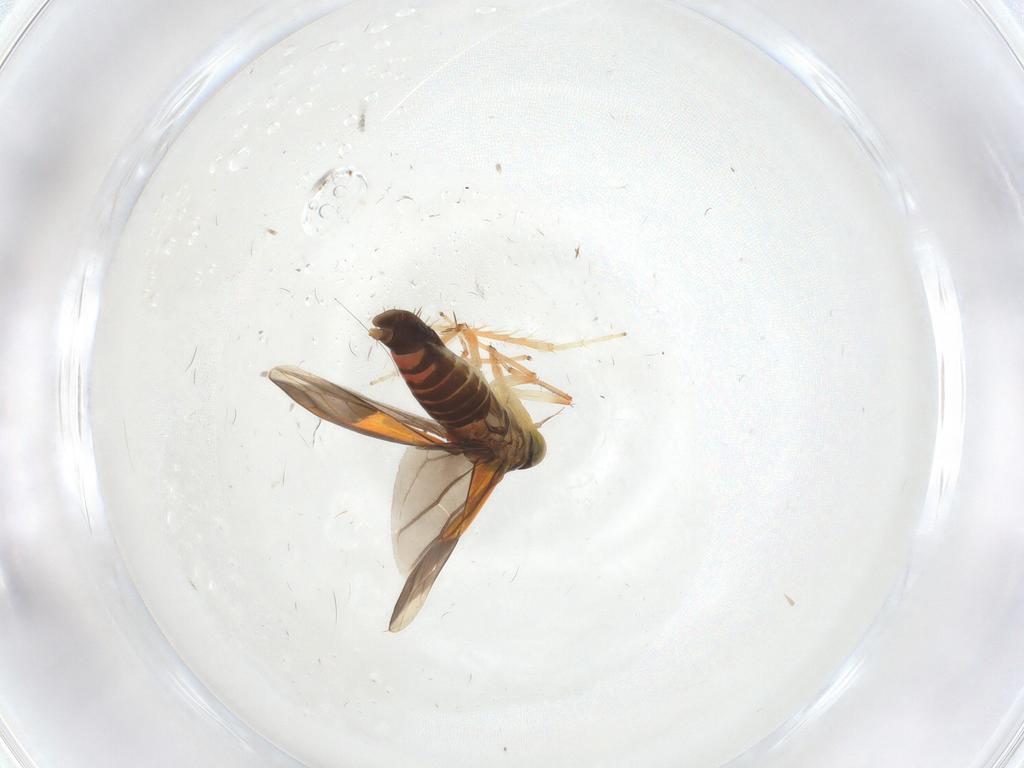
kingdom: Animalia
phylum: Arthropoda
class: Insecta
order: Hemiptera
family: Cicadellidae
